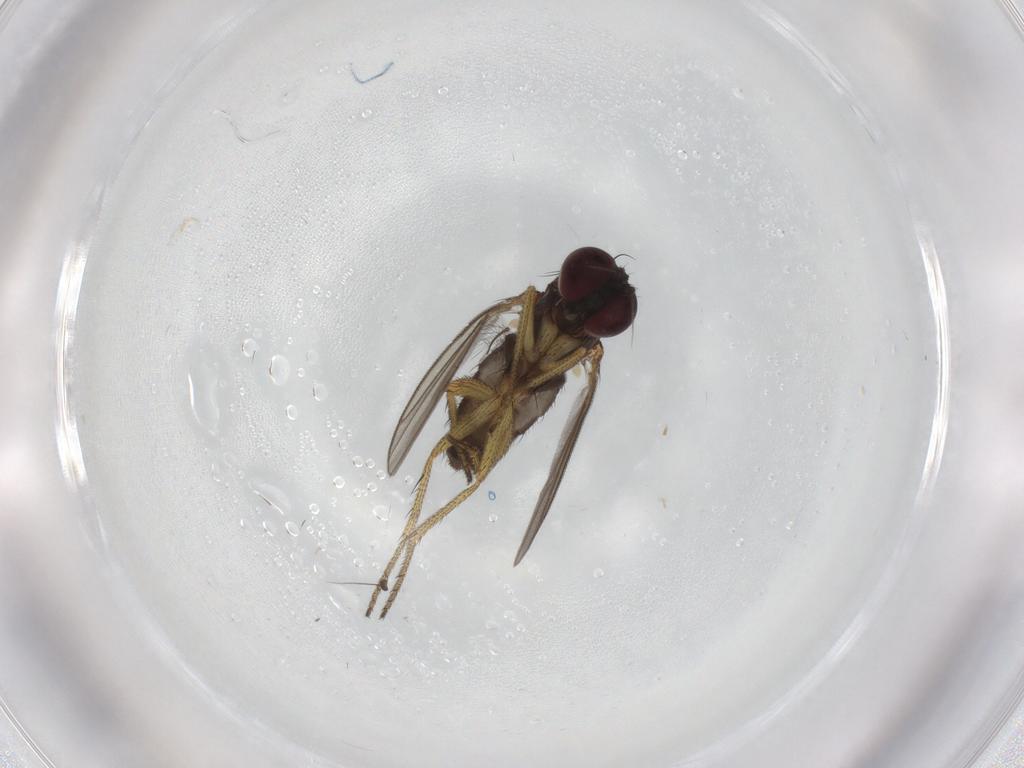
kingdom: Animalia
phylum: Arthropoda
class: Insecta
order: Diptera
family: Chironomidae
